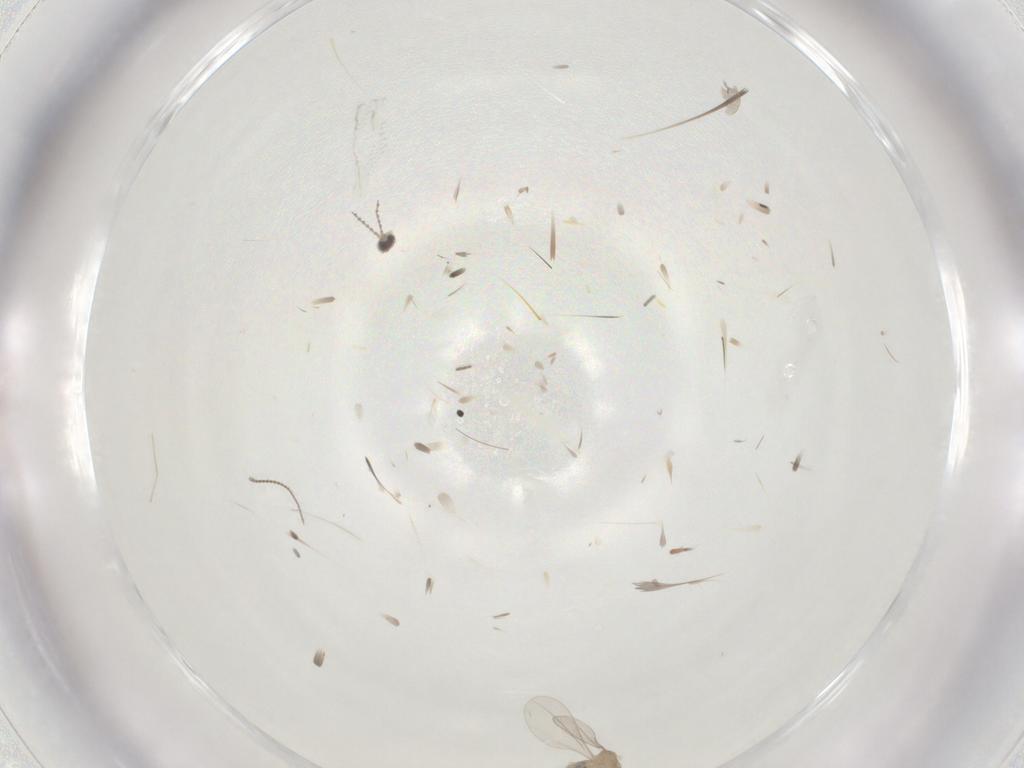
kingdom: Animalia
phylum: Arthropoda
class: Insecta
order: Diptera
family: Cecidomyiidae
